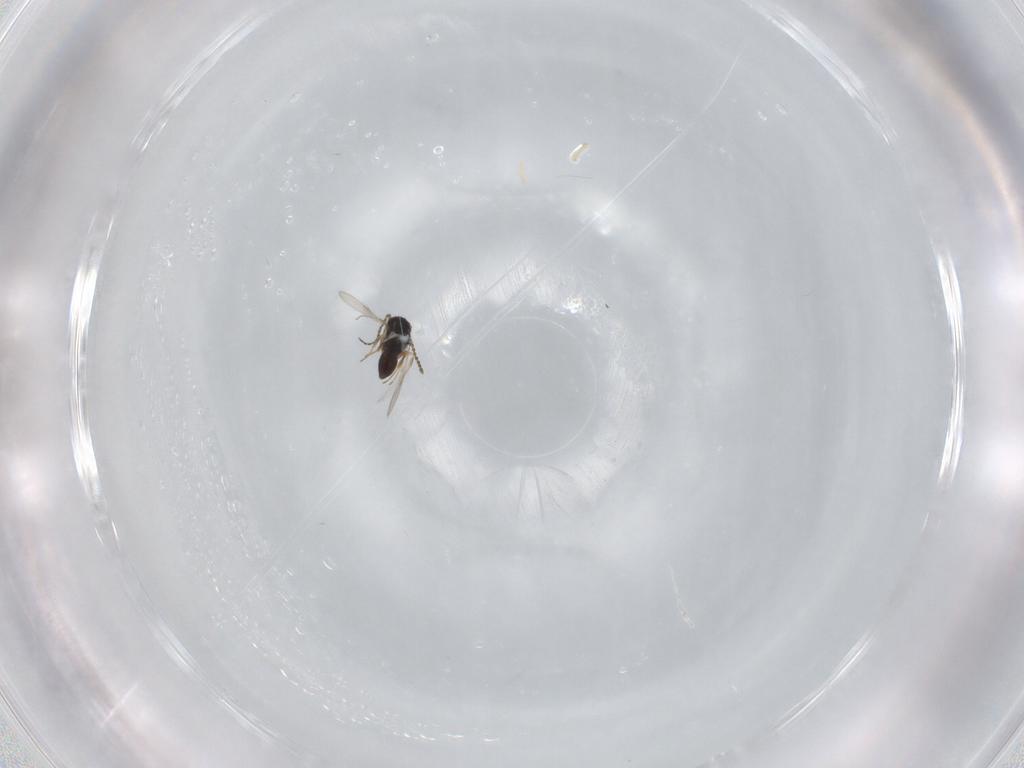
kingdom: Animalia
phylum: Arthropoda
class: Insecta
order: Hymenoptera
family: Scelionidae
